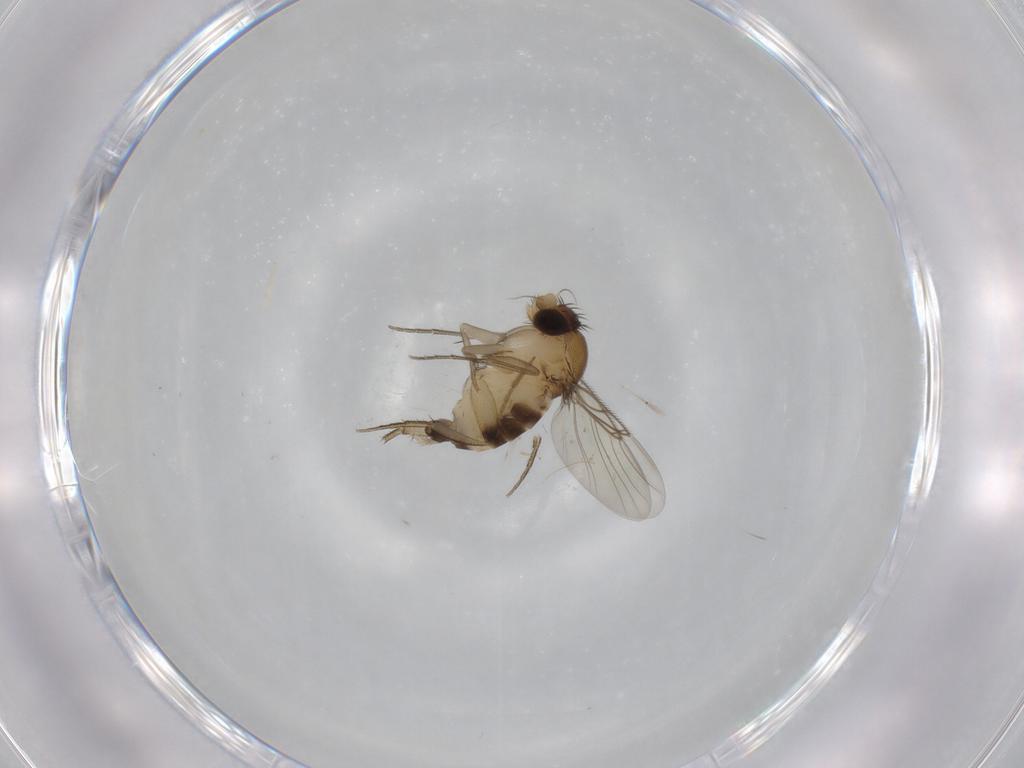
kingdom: Animalia
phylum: Arthropoda
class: Insecta
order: Diptera
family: Phoridae
